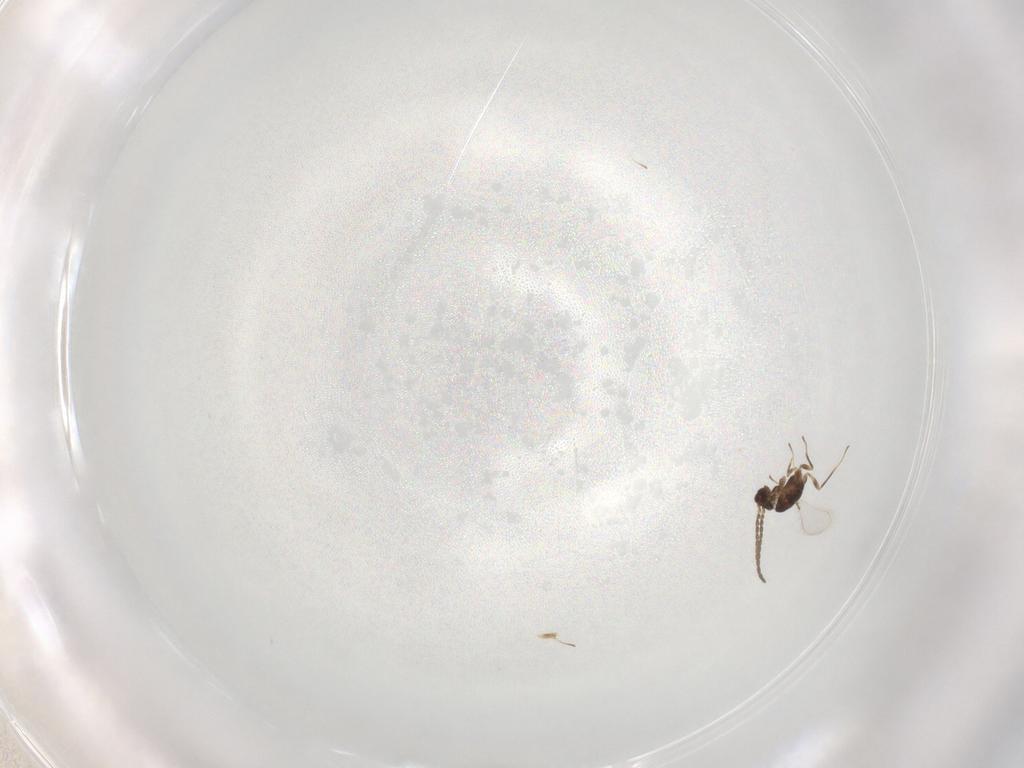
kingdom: Animalia
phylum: Arthropoda
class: Insecta
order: Hymenoptera
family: Mymaridae
